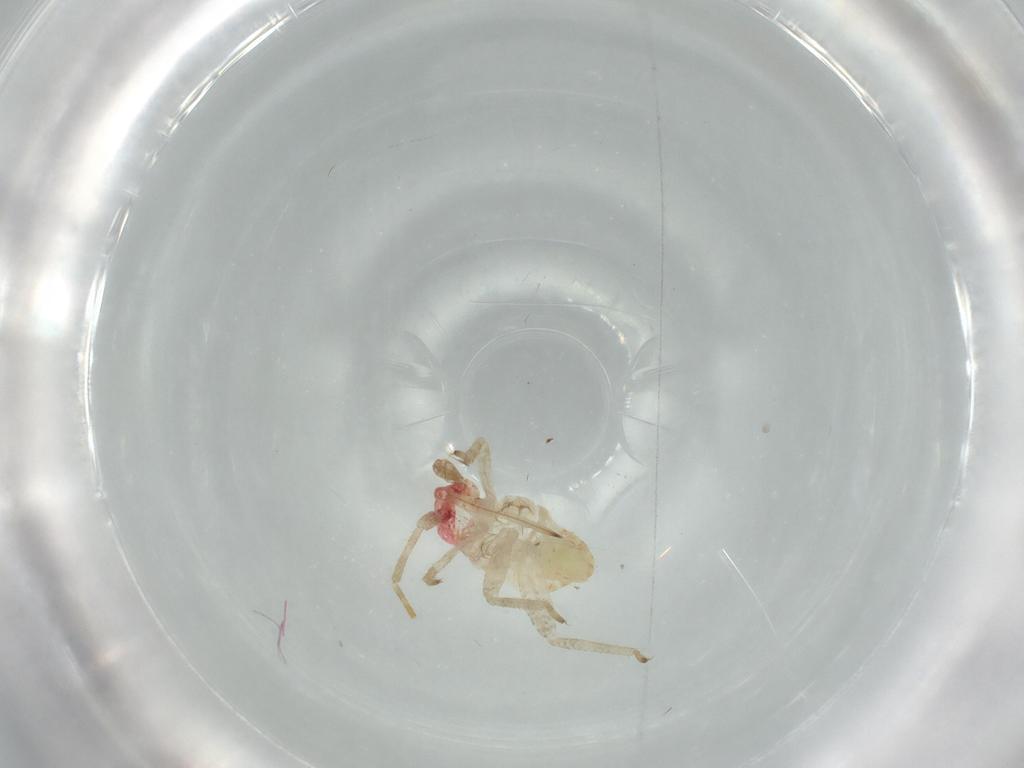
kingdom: Animalia
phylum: Arthropoda
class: Insecta
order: Hemiptera
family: Miridae
